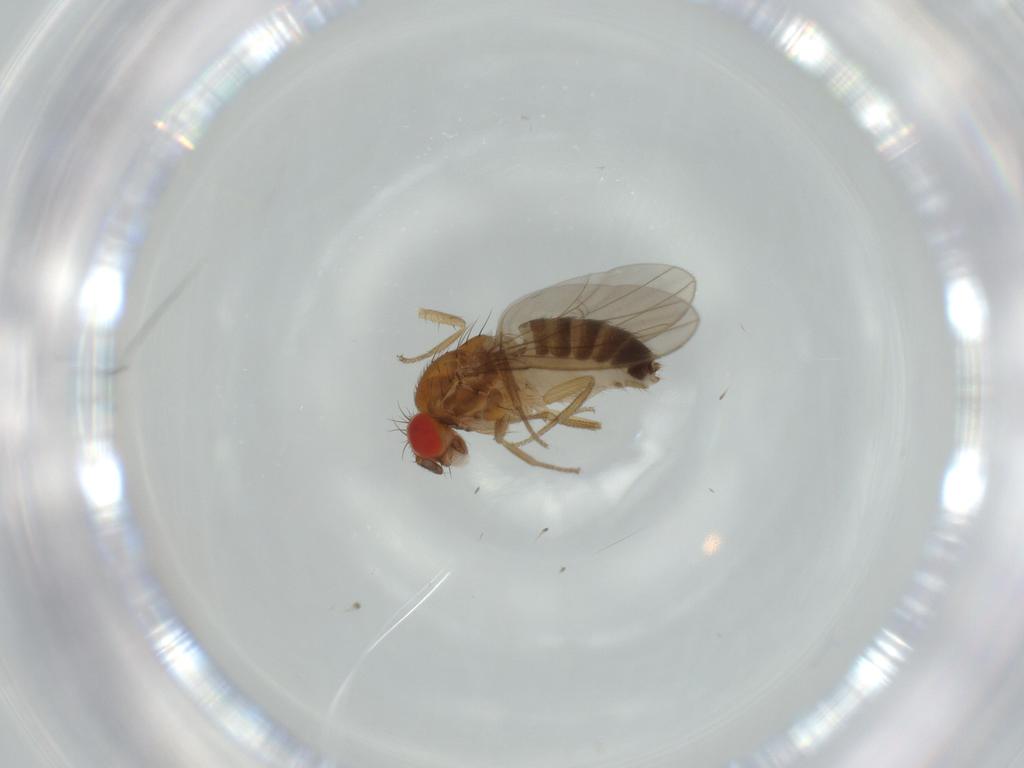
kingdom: Animalia
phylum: Arthropoda
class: Insecta
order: Diptera
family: Drosophilidae
